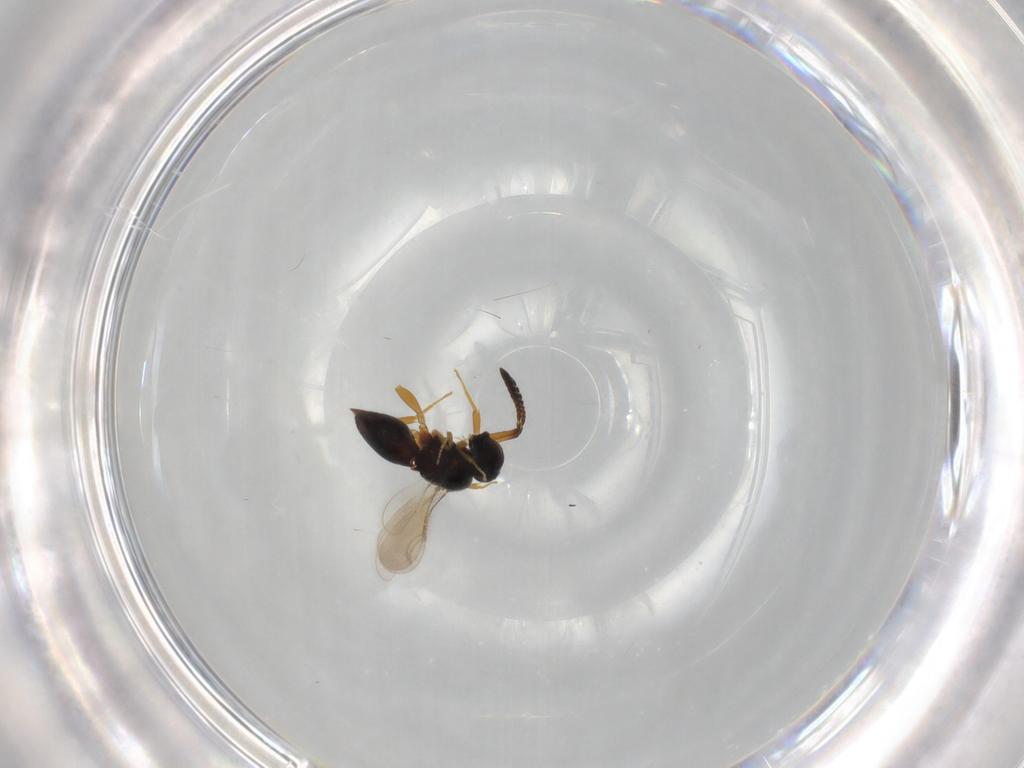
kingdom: Animalia
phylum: Arthropoda
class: Insecta
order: Hymenoptera
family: Ceraphronidae
